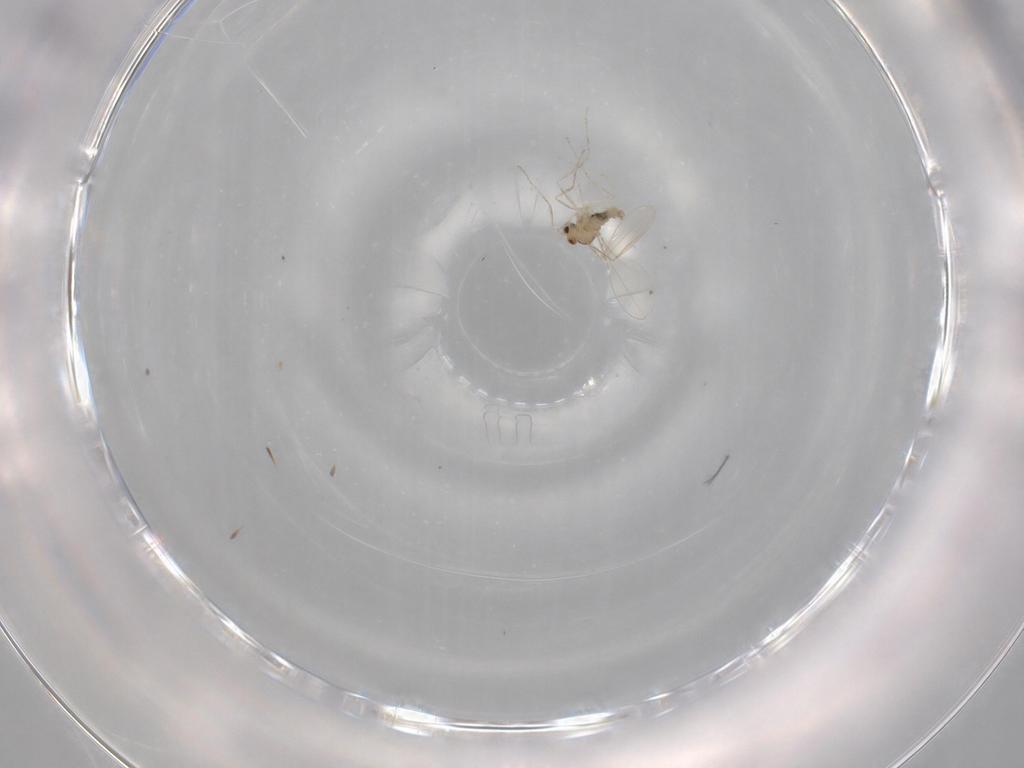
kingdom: Animalia
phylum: Arthropoda
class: Insecta
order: Diptera
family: Cecidomyiidae
